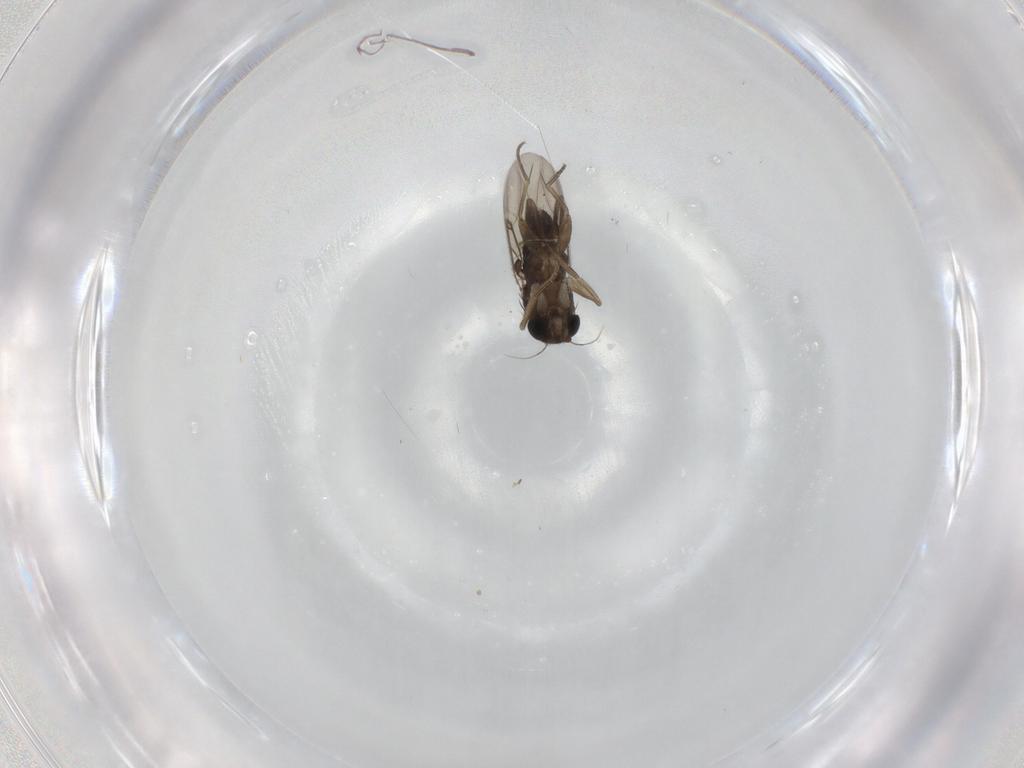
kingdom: Animalia
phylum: Arthropoda
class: Insecta
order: Diptera
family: Phoridae
